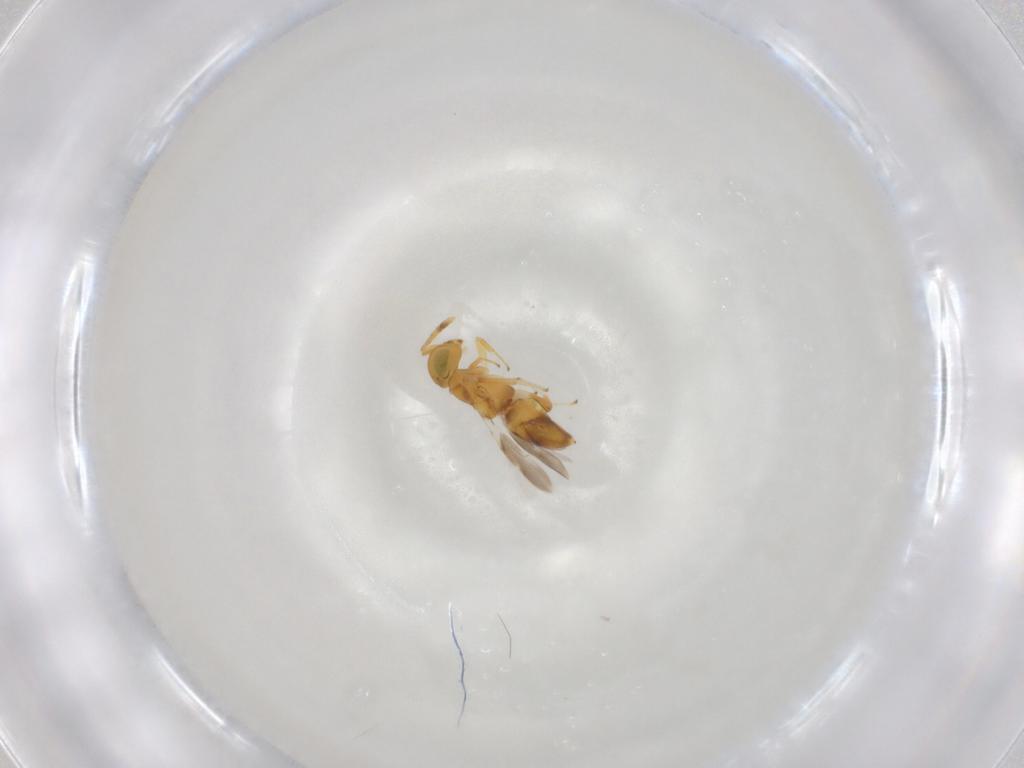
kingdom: Animalia
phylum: Arthropoda
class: Insecta
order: Hymenoptera
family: Encyrtidae
